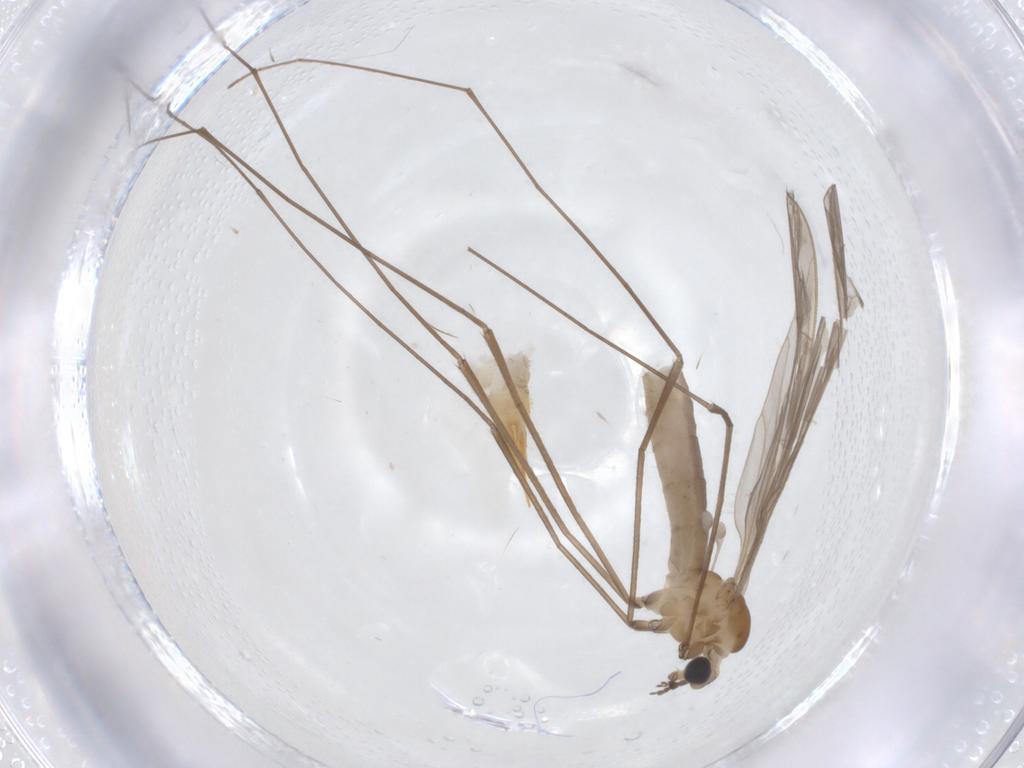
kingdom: Animalia
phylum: Arthropoda
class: Insecta
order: Diptera
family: Limoniidae
